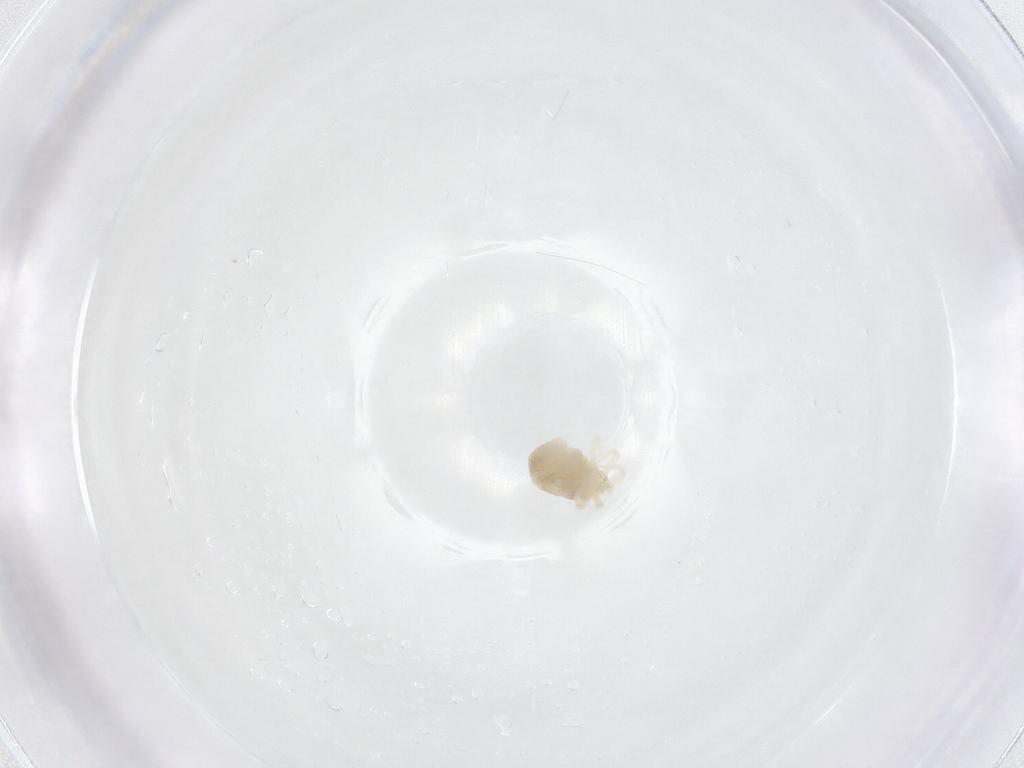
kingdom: Animalia
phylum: Arthropoda
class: Arachnida
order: Trombidiformes
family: Anystidae
